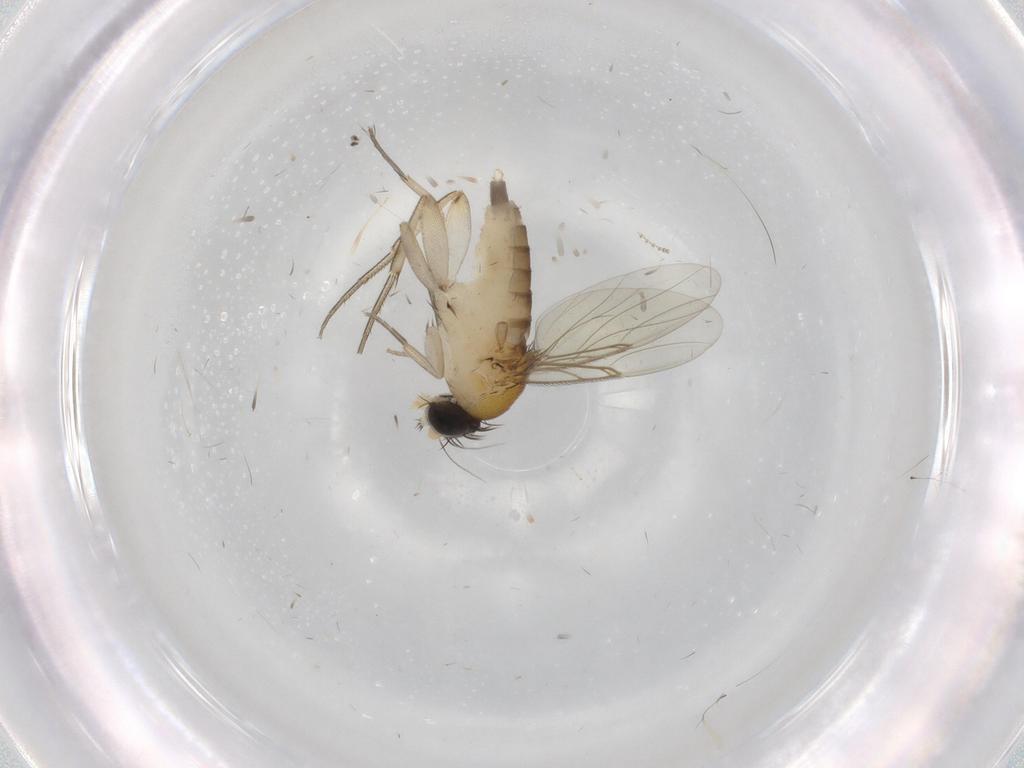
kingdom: Animalia
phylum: Arthropoda
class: Insecta
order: Diptera
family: Phoridae
